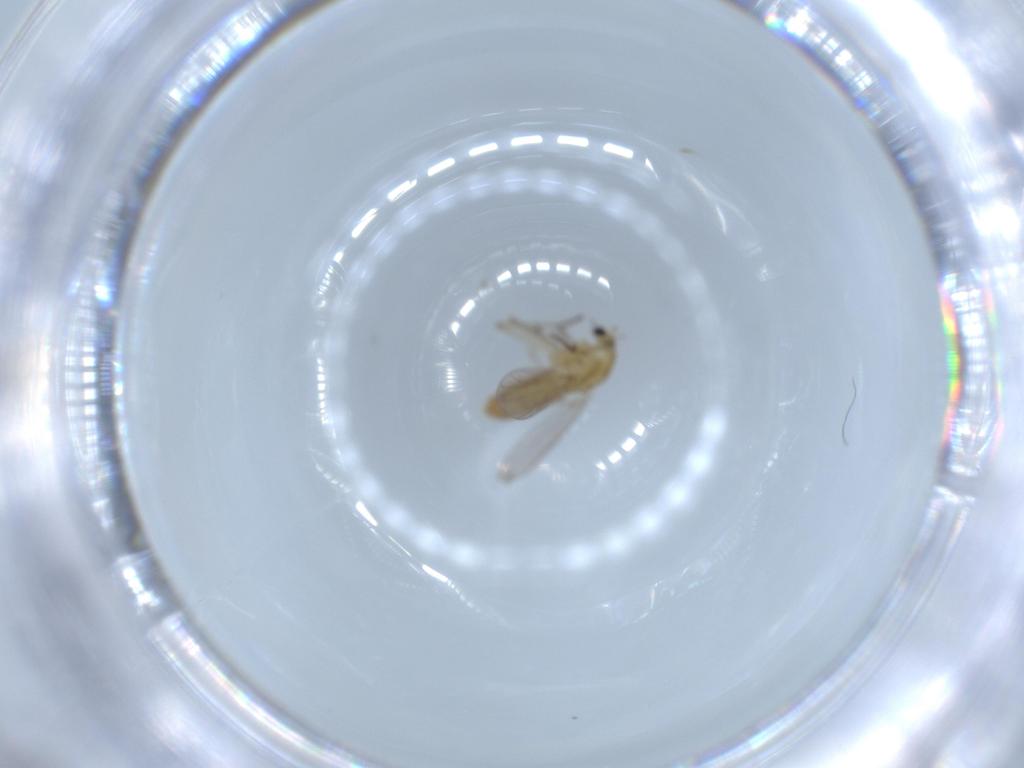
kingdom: Animalia
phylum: Arthropoda
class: Insecta
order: Diptera
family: Chironomidae
